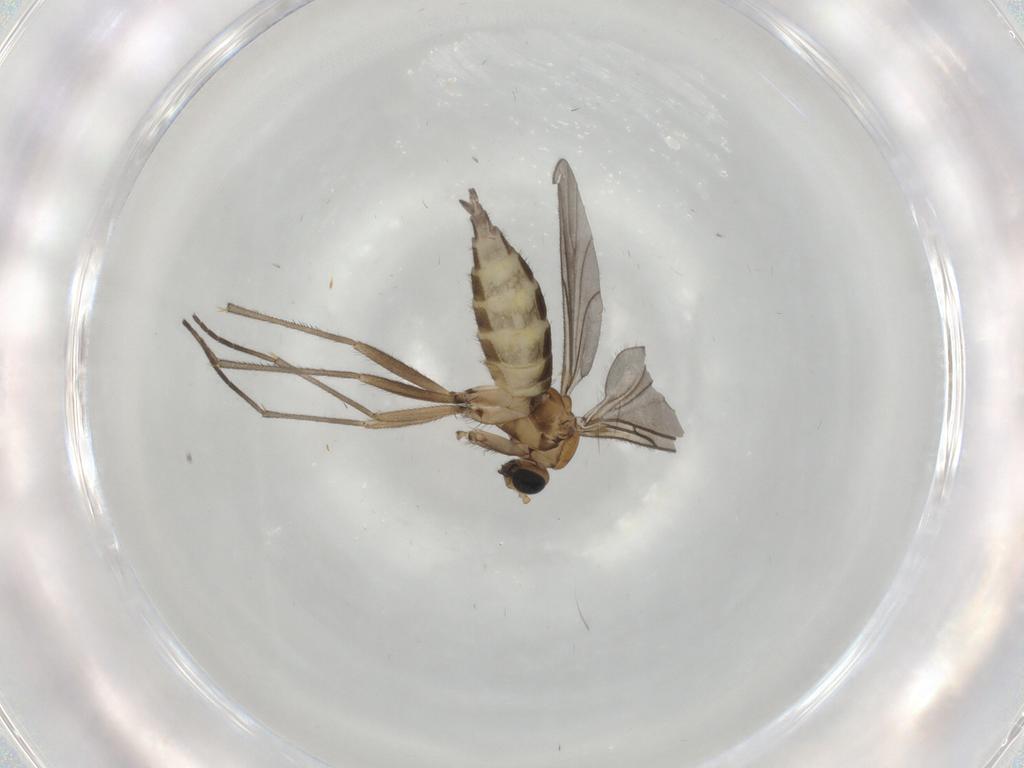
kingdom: Animalia
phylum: Arthropoda
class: Insecta
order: Diptera
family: Sciaridae
